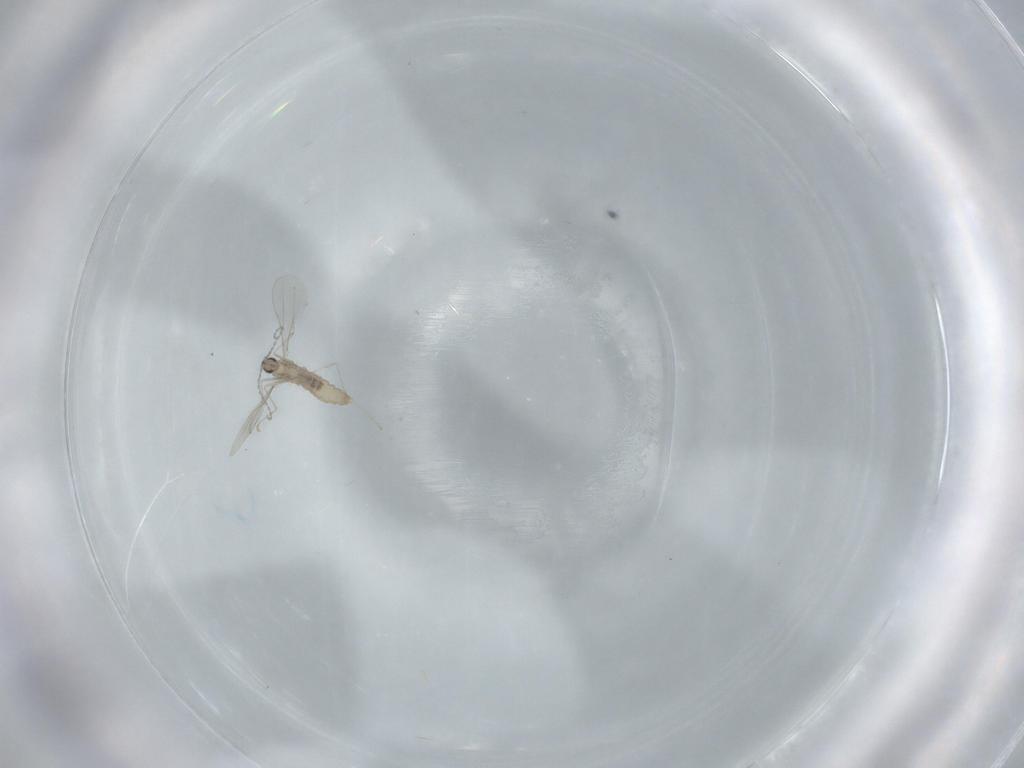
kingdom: Animalia
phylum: Arthropoda
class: Insecta
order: Diptera
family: Cecidomyiidae
